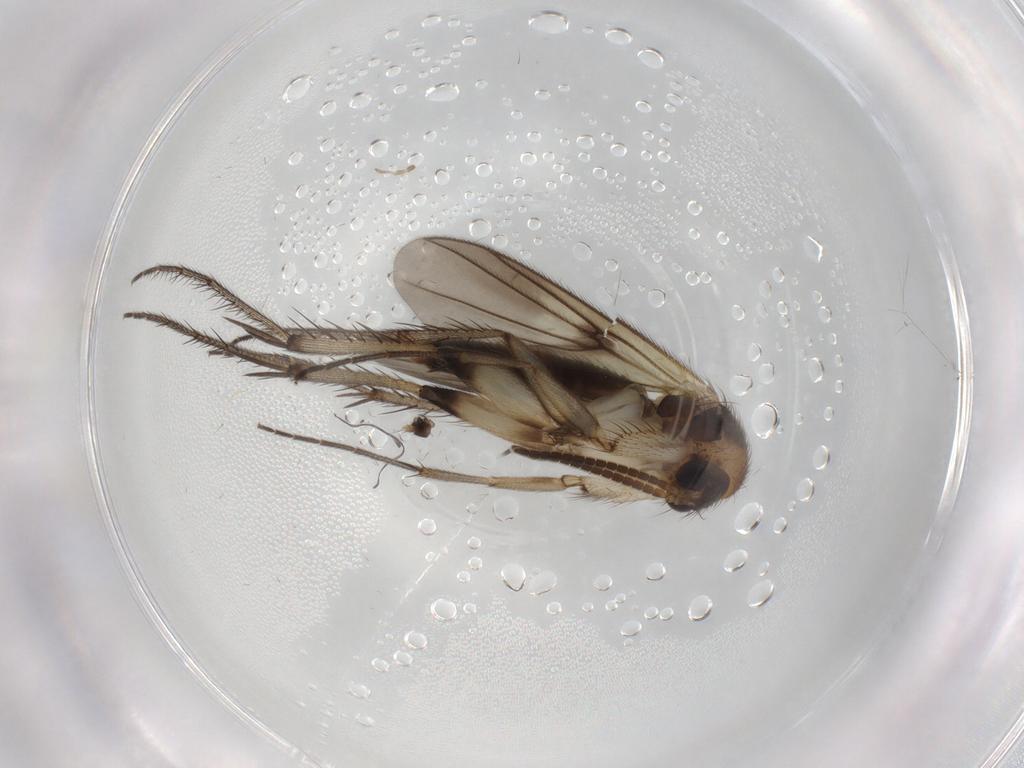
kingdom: Animalia
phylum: Arthropoda
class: Insecta
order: Diptera
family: Mycetophilidae
